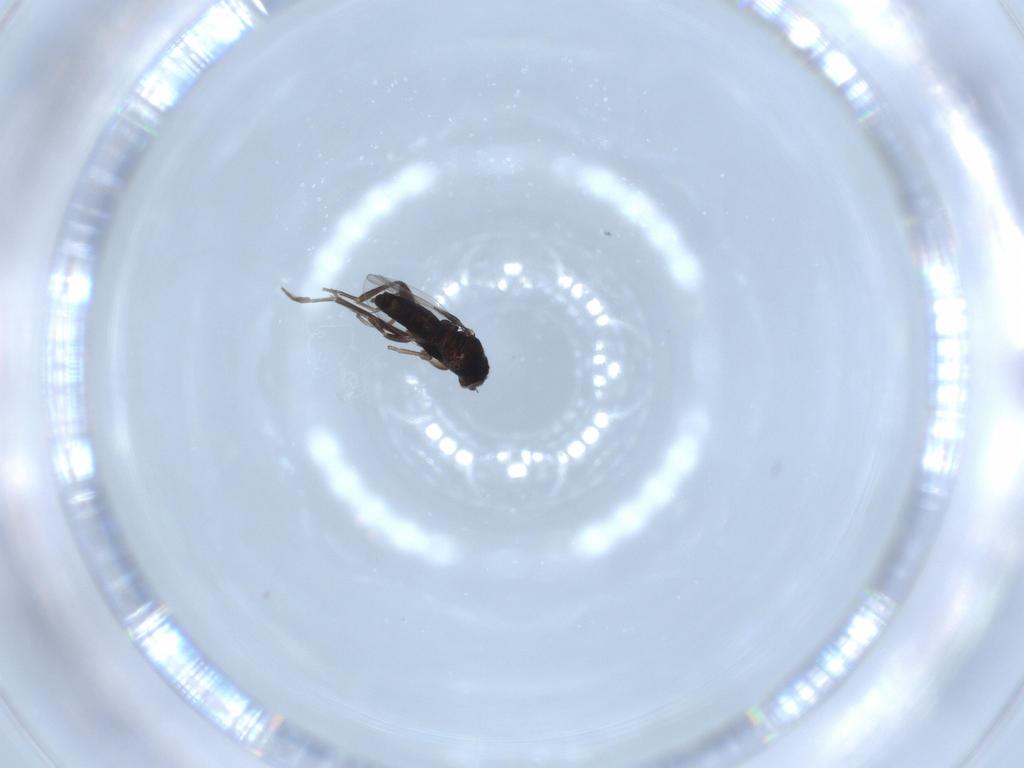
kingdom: Animalia
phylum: Arthropoda
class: Insecta
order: Diptera
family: Phoridae
